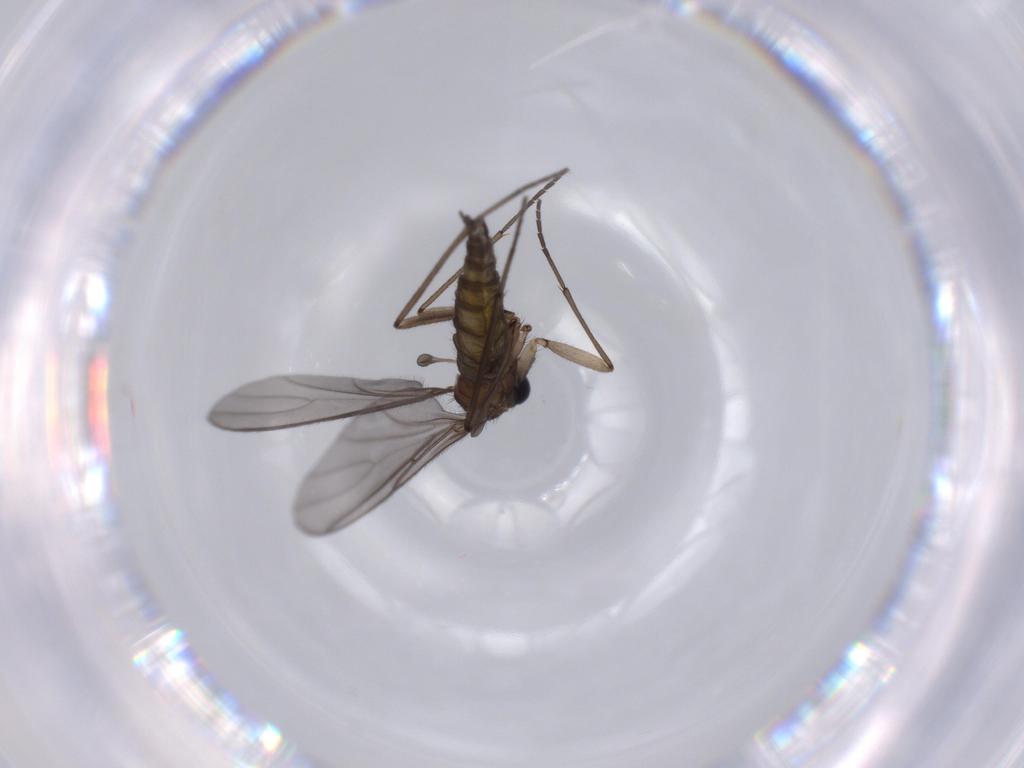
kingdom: Animalia
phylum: Arthropoda
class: Insecta
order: Diptera
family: Sciaridae
